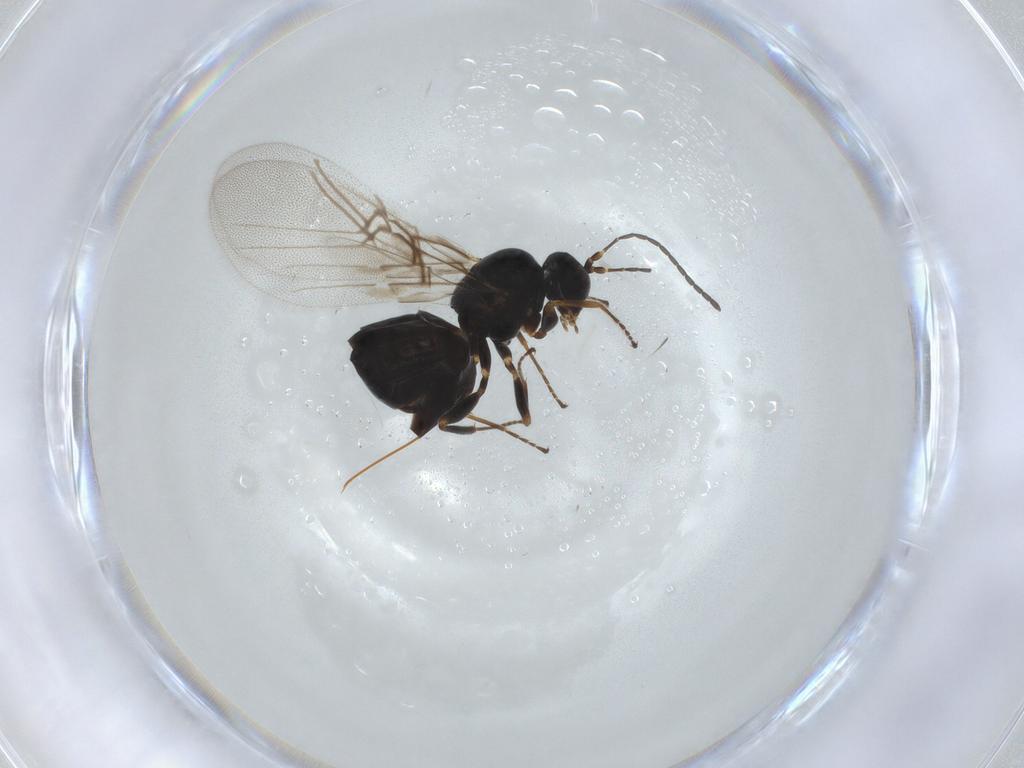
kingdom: Animalia
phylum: Arthropoda
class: Insecta
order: Hymenoptera
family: Cynipidae
